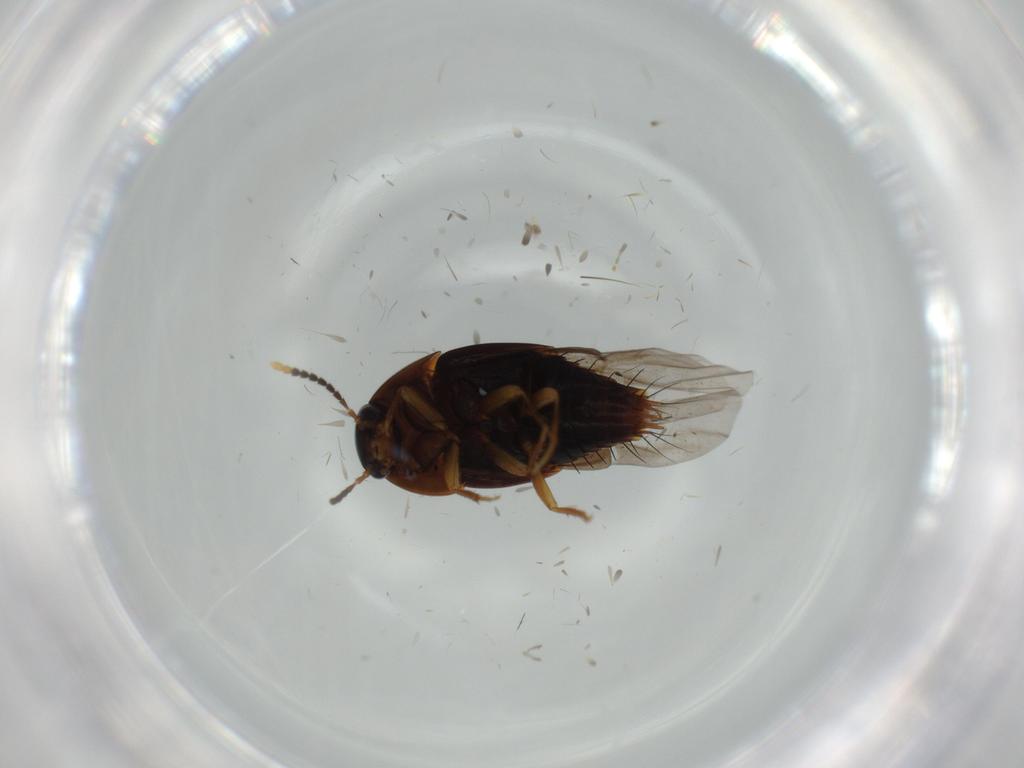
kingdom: Animalia
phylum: Arthropoda
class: Insecta
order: Coleoptera
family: Staphylinidae
